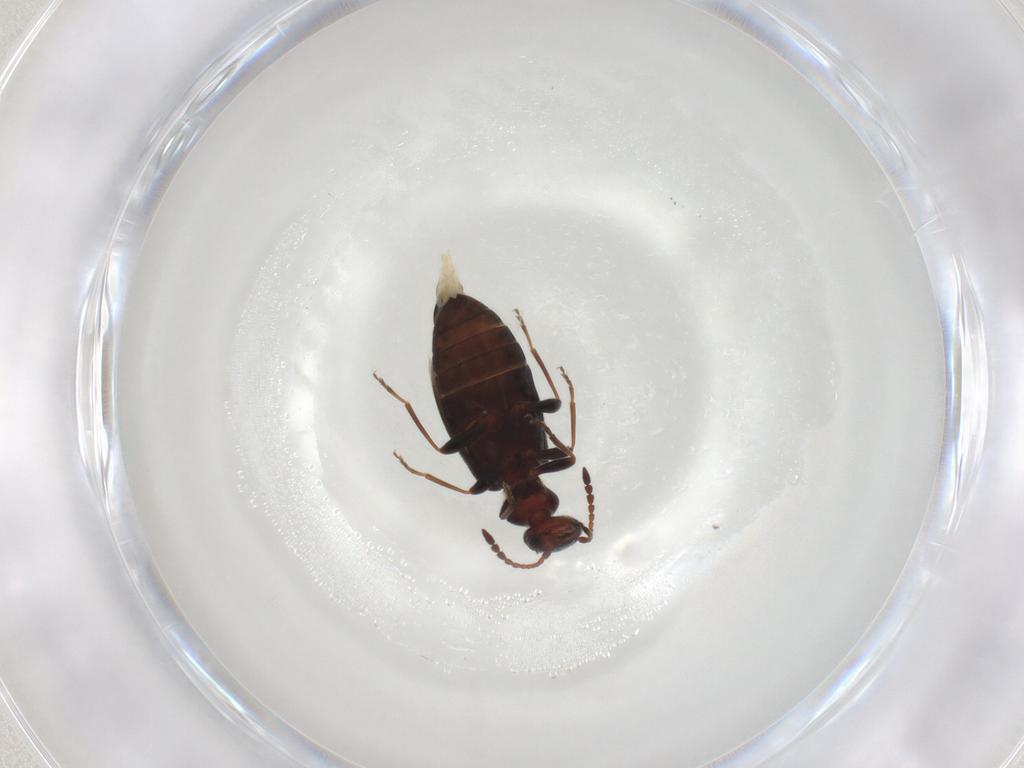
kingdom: Animalia
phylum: Arthropoda
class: Insecta
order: Coleoptera
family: Anthicidae
